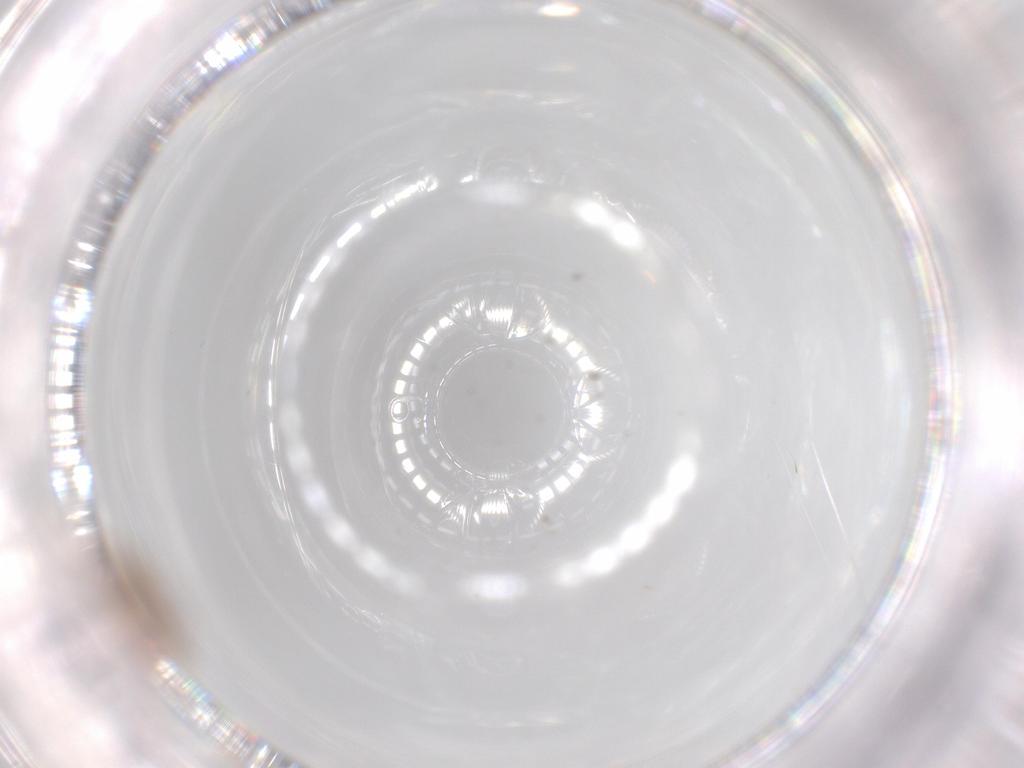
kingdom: Animalia
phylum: Arthropoda
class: Insecta
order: Hymenoptera
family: Scelionidae
